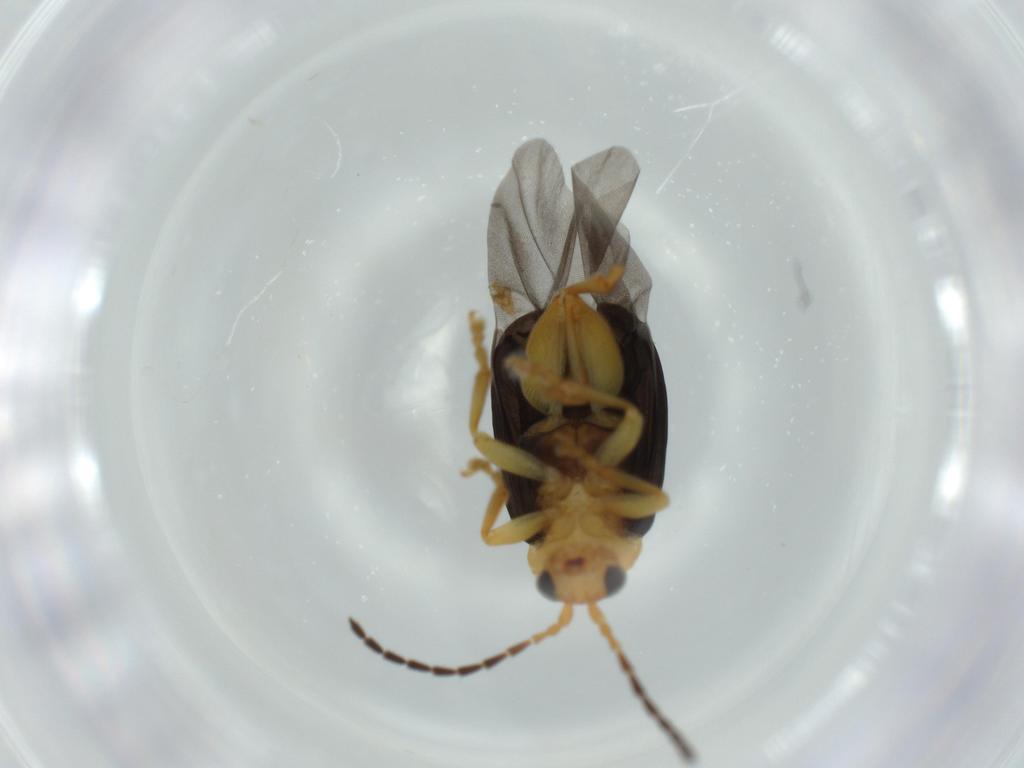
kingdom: Animalia
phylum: Arthropoda
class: Insecta
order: Coleoptera
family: Chrysomelidae
